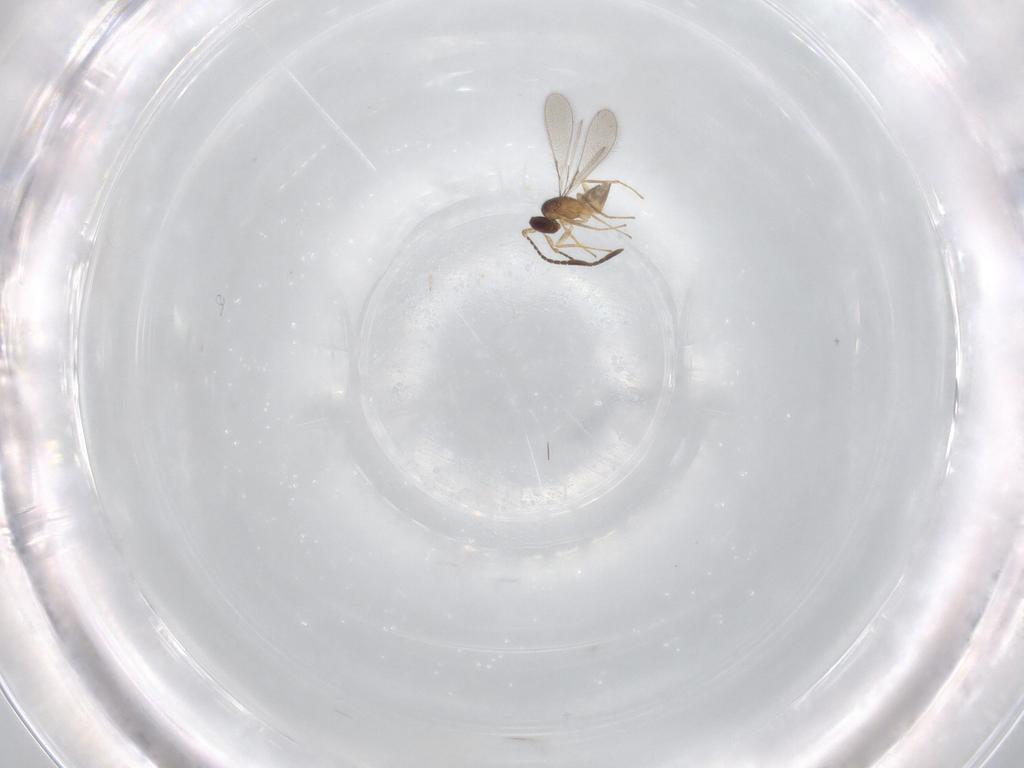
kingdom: Animalia
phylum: Arthropoda
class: Insecta
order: Hymenoptera
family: Mymaridae
